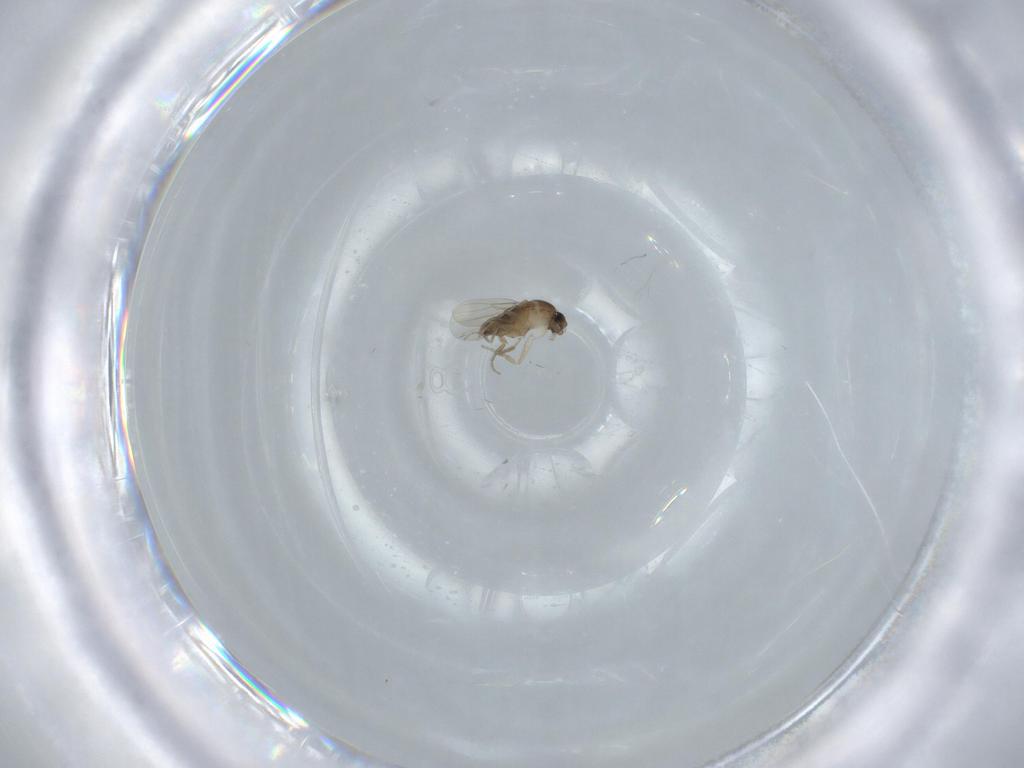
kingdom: Animalia
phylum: Arthropoda
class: Insecta
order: Diptera
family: Phoridae
